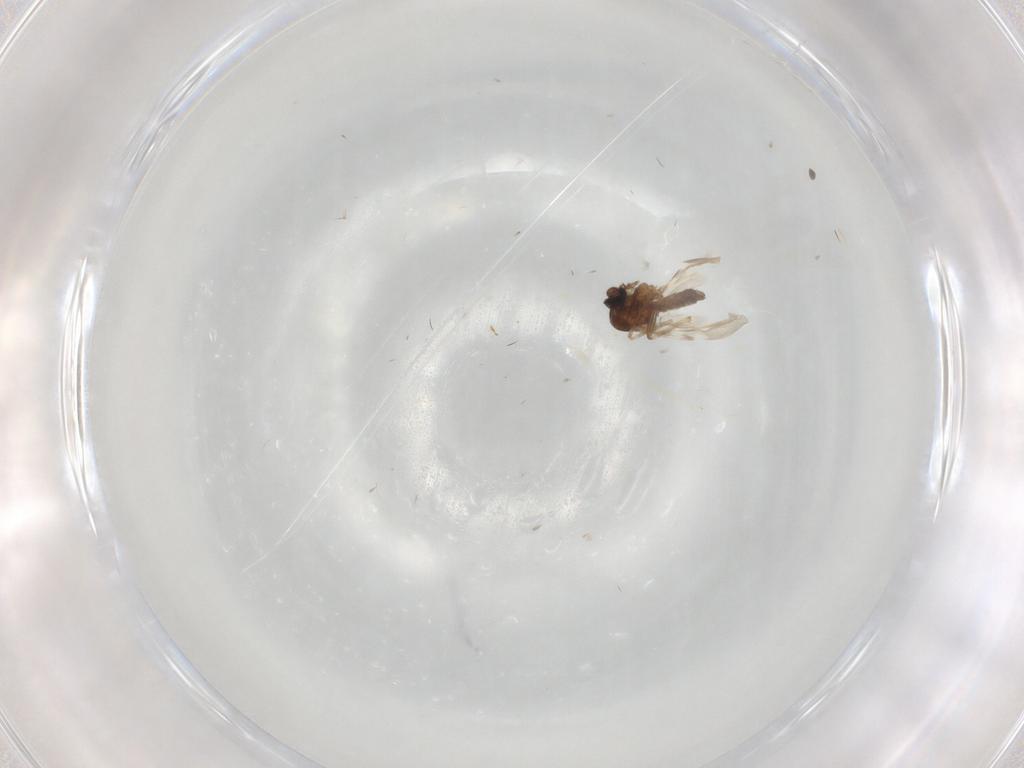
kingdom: Animalia
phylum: Arthropoda
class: Insecta
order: Diptera
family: Ceratopogonidae
